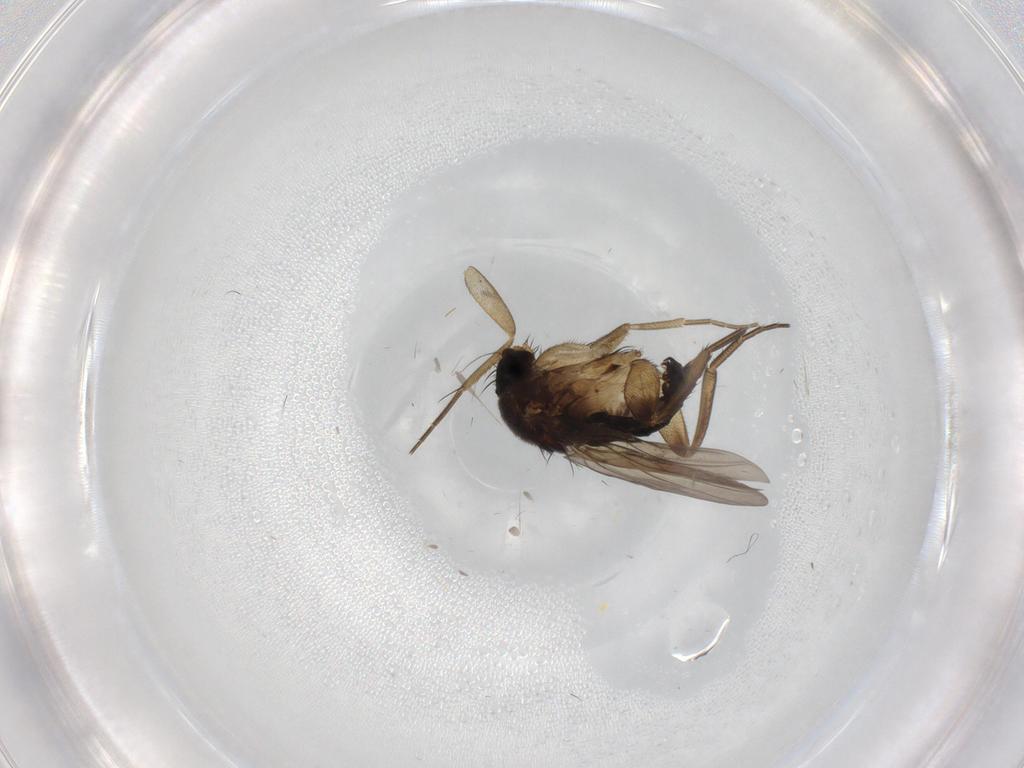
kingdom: Animalia
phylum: Arthropoda
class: Insecta
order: Diptera
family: Phoridae
